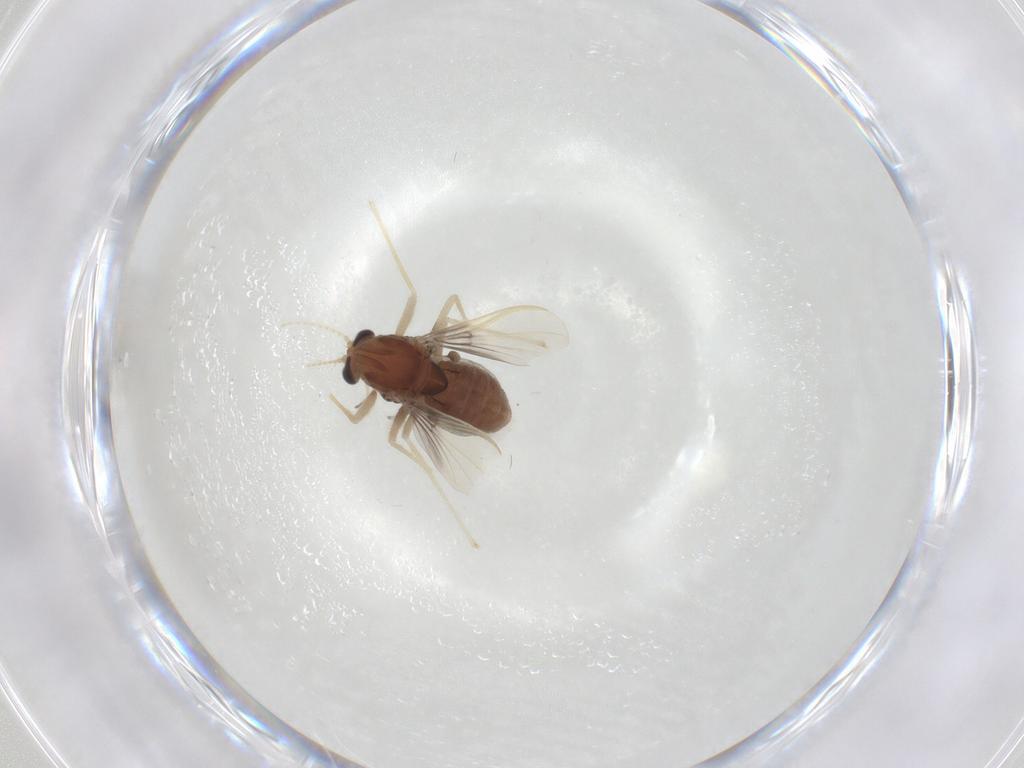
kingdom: Animalia
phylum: Arthropoda
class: Insecta
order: Diptera
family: Chironomidae
